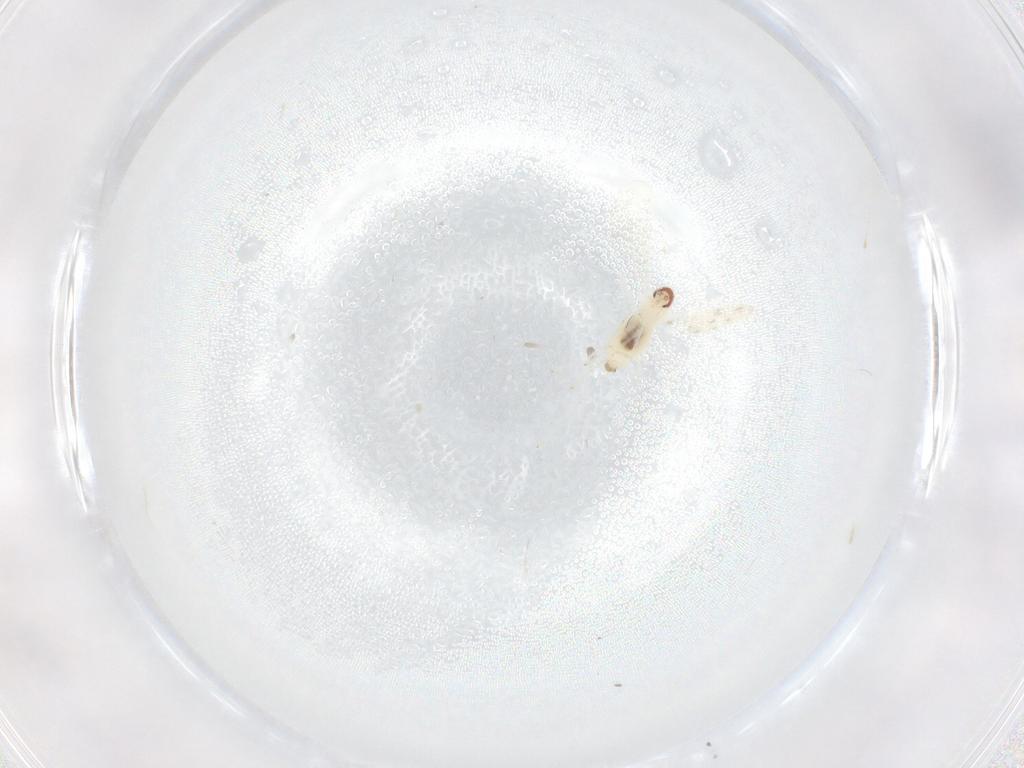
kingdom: Animalia
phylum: Arthropoda
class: Insecta
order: Diptera
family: Cecidomyiidae
